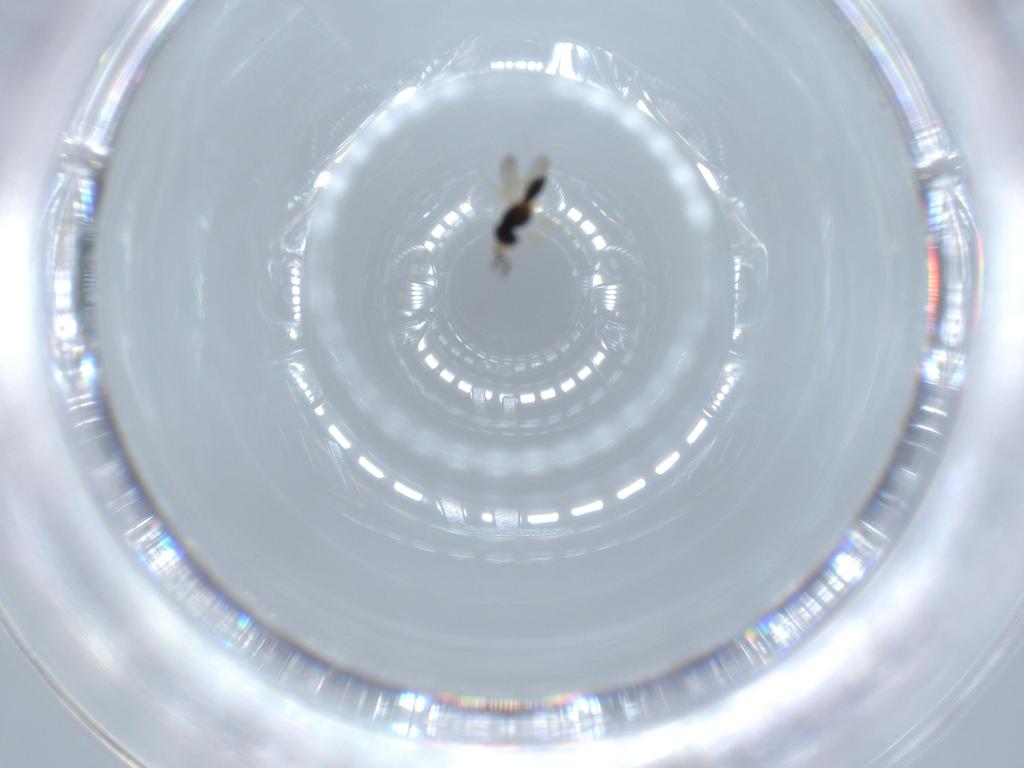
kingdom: Animalia
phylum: Arthropoda
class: Insecta
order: Hymenoptera
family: Scelionidae
